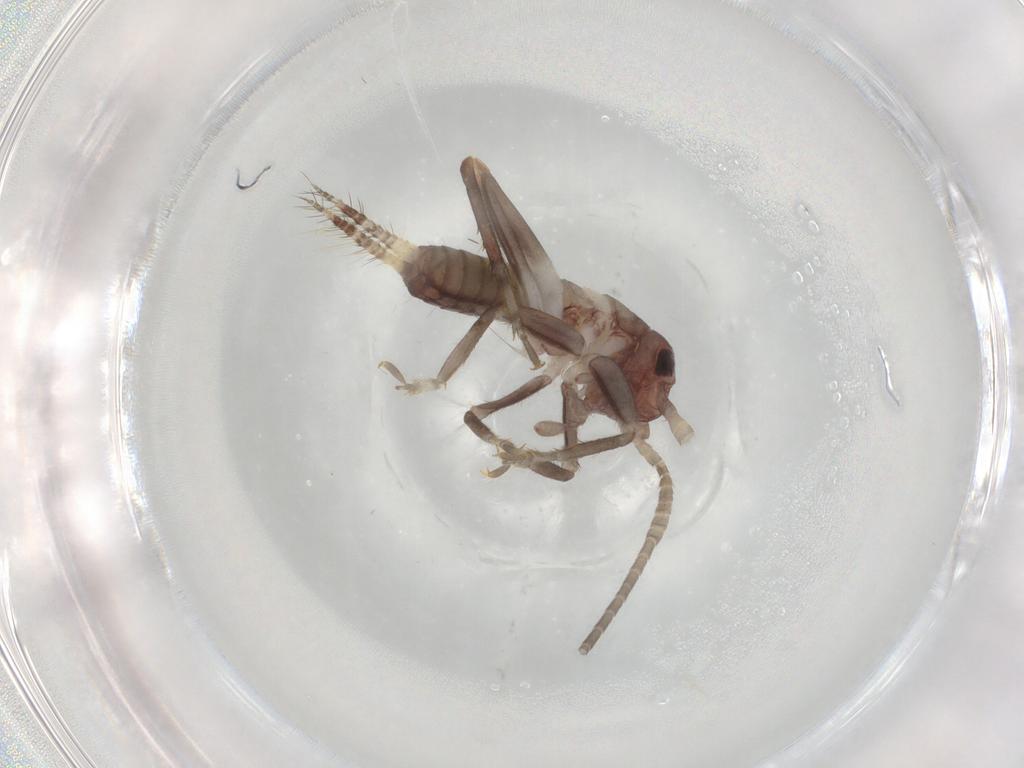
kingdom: Animalia
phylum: Arthropoda
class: Insecta
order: Orthoptera
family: Gryllidae
